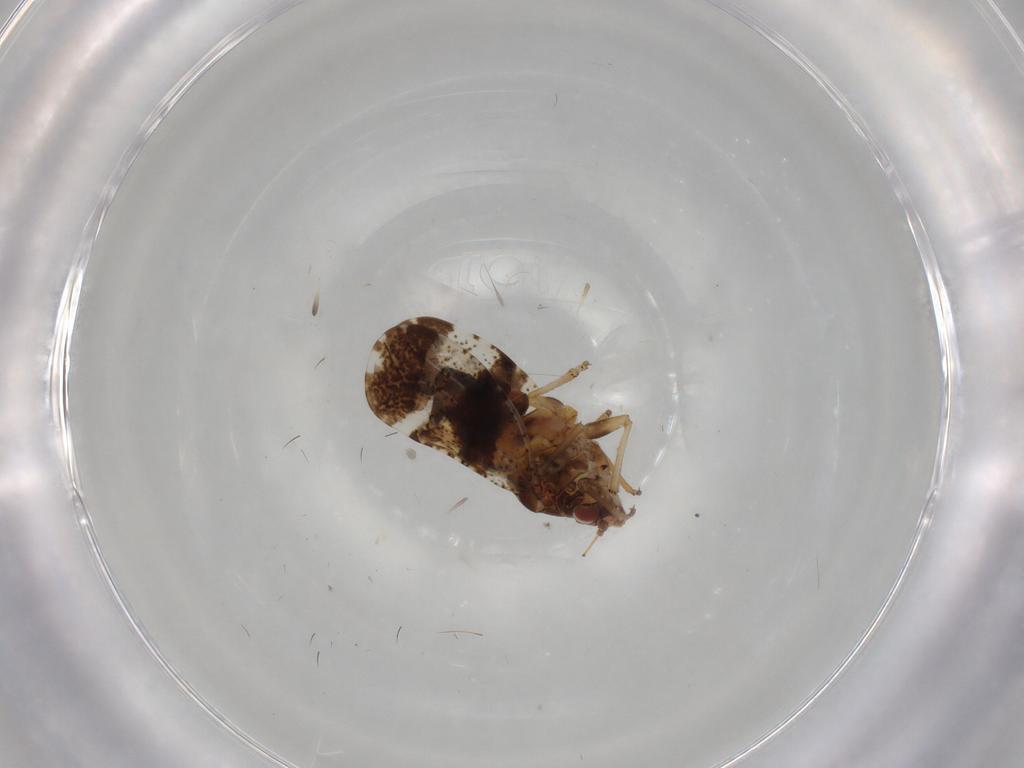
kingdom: Animalia
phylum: Arthropoda
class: Insecta
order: Hemiptera
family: Psyllidae
